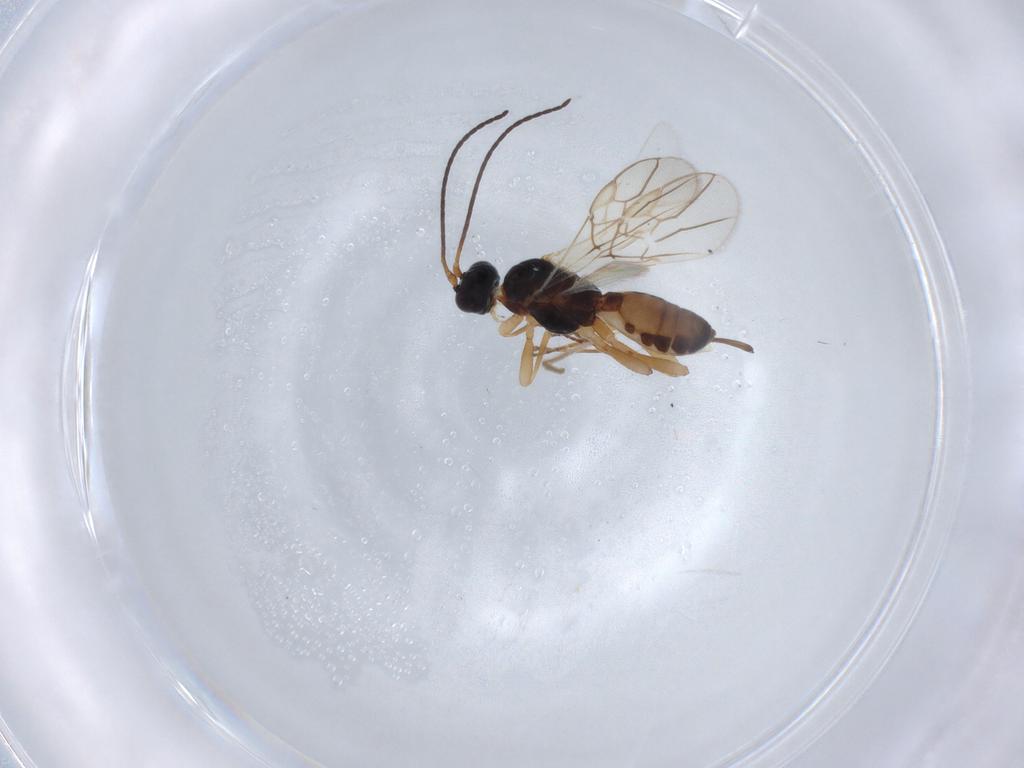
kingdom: Animalia
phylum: Arthropoda
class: Insecta
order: Hymenoptera
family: Braconidae
